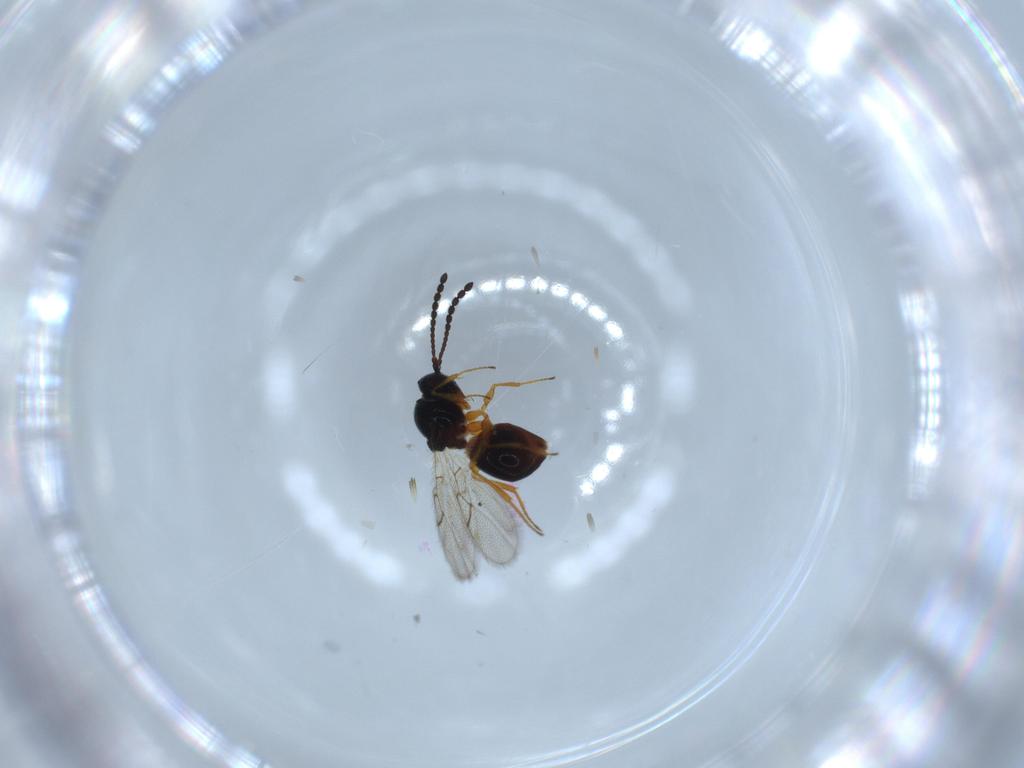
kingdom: Animalia
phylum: Arthropoda
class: Insecta
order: Hymenoptera
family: Figitidae
